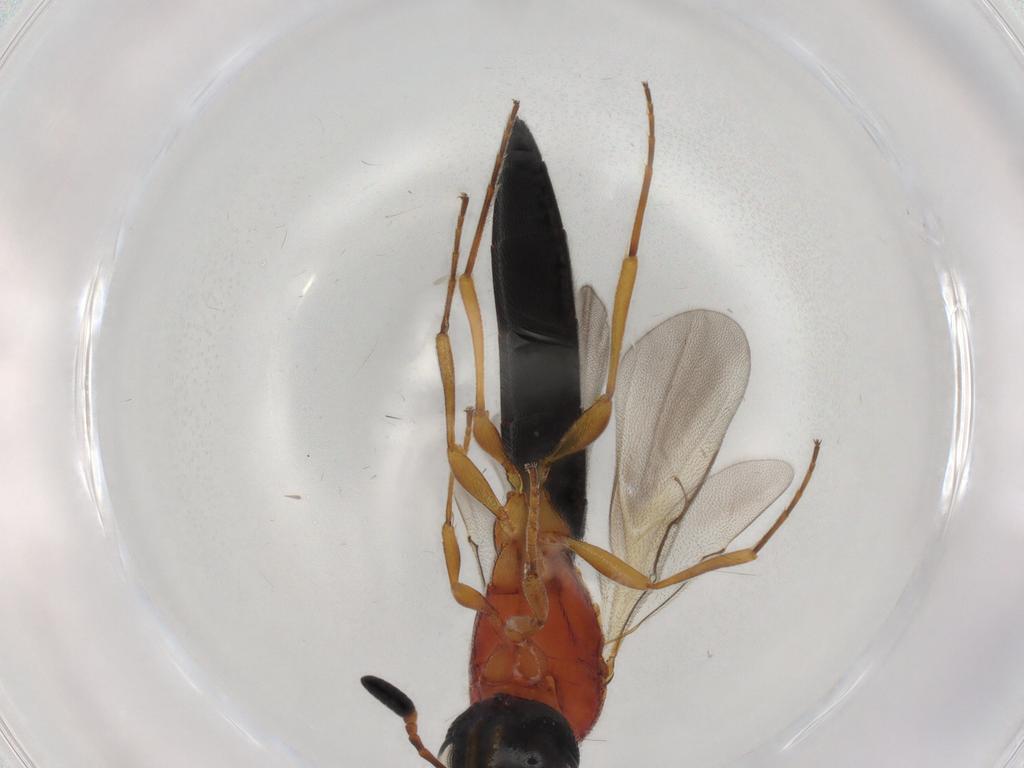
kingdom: Animalia
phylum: Arthropoda
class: Insecta
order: Hymenoptera
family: Scelionidae
